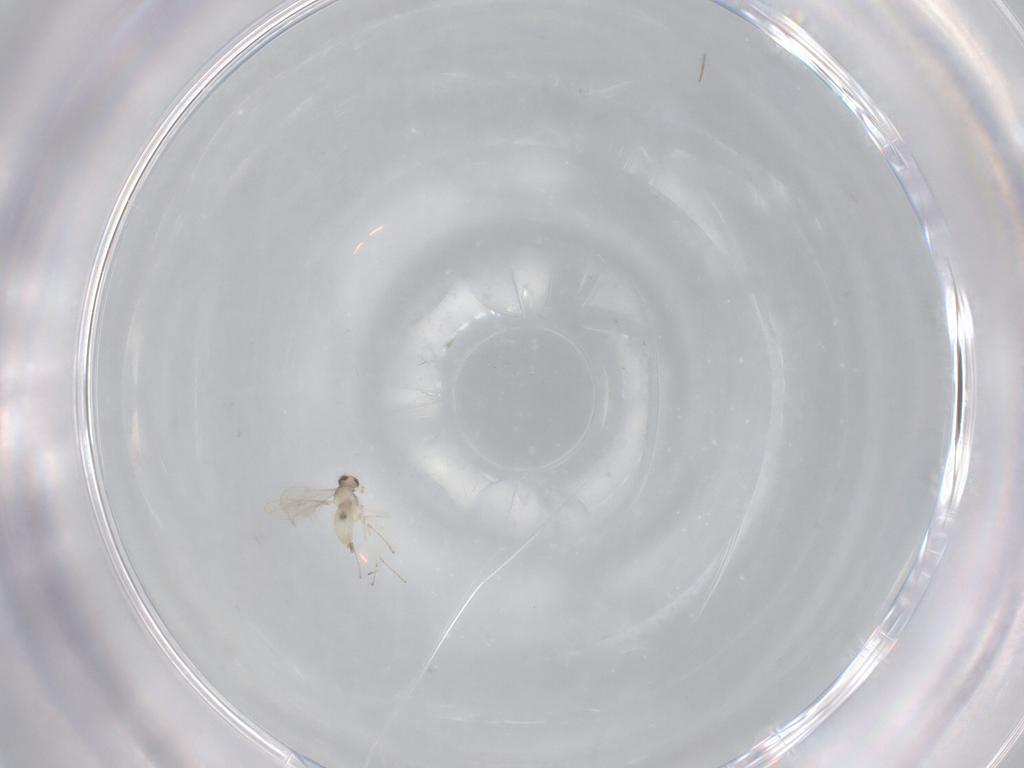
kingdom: Animalia
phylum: Arthropoda
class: Insecta
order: Diptera
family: Cecidomyiidae
